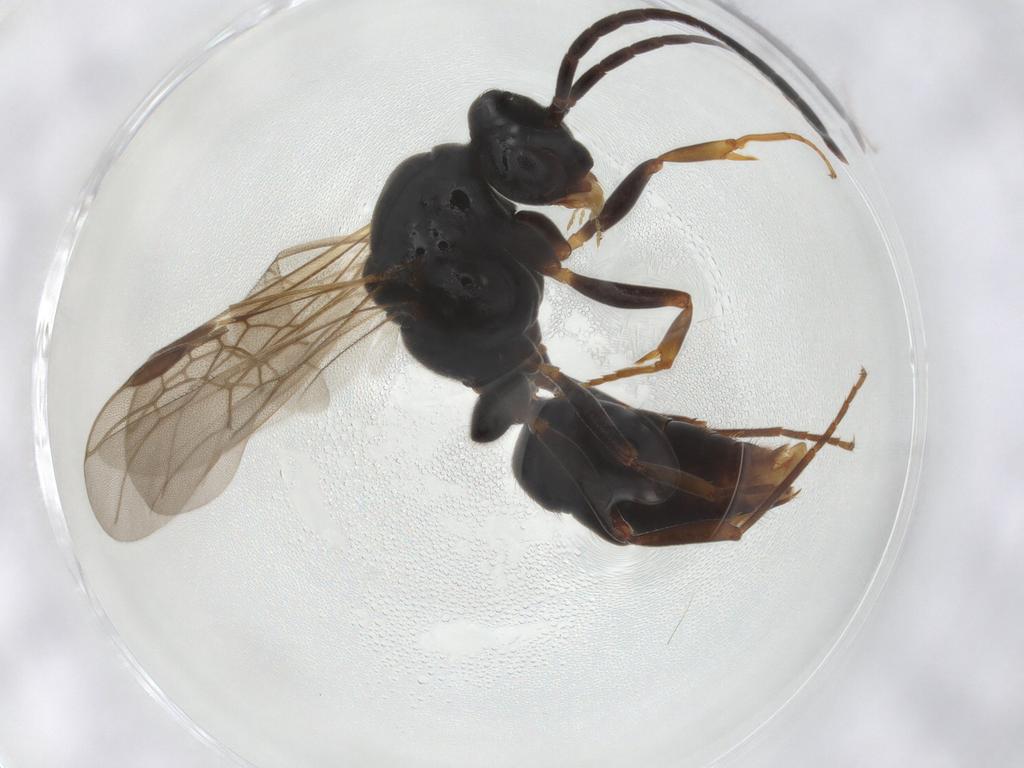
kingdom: Animalia
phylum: Arthropoda
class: Insecta
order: Hymenoptera
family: Formicidae
